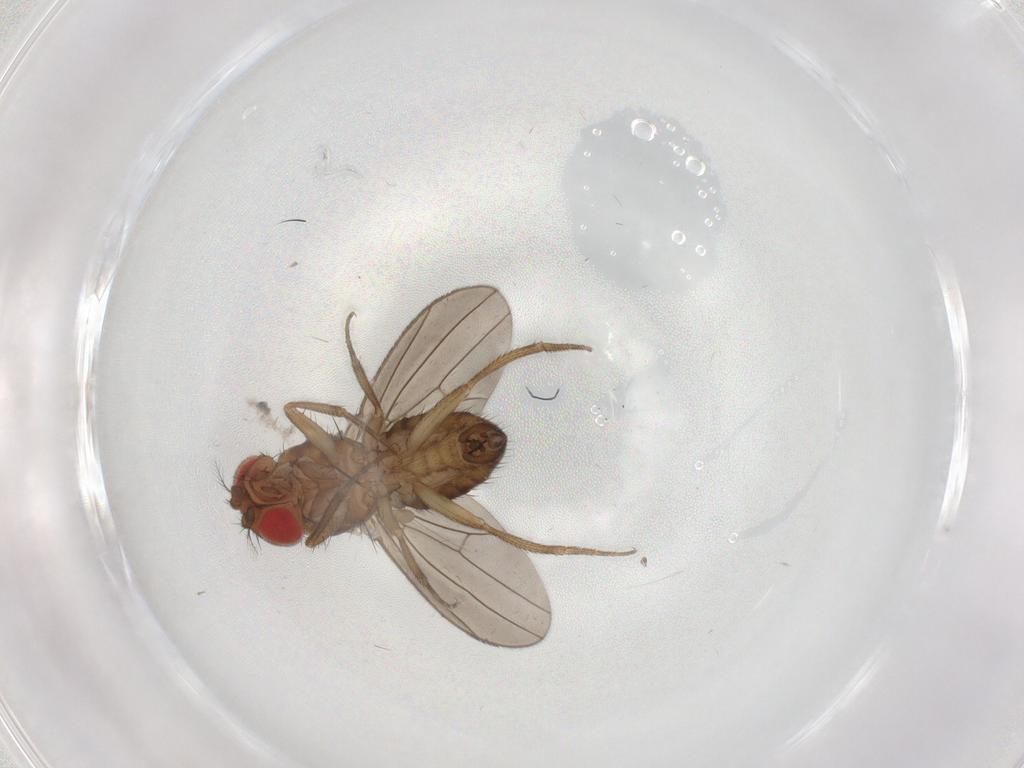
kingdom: Animalia
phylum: Arthropoda
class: Insecta
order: Diptera
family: Drosophilidae
